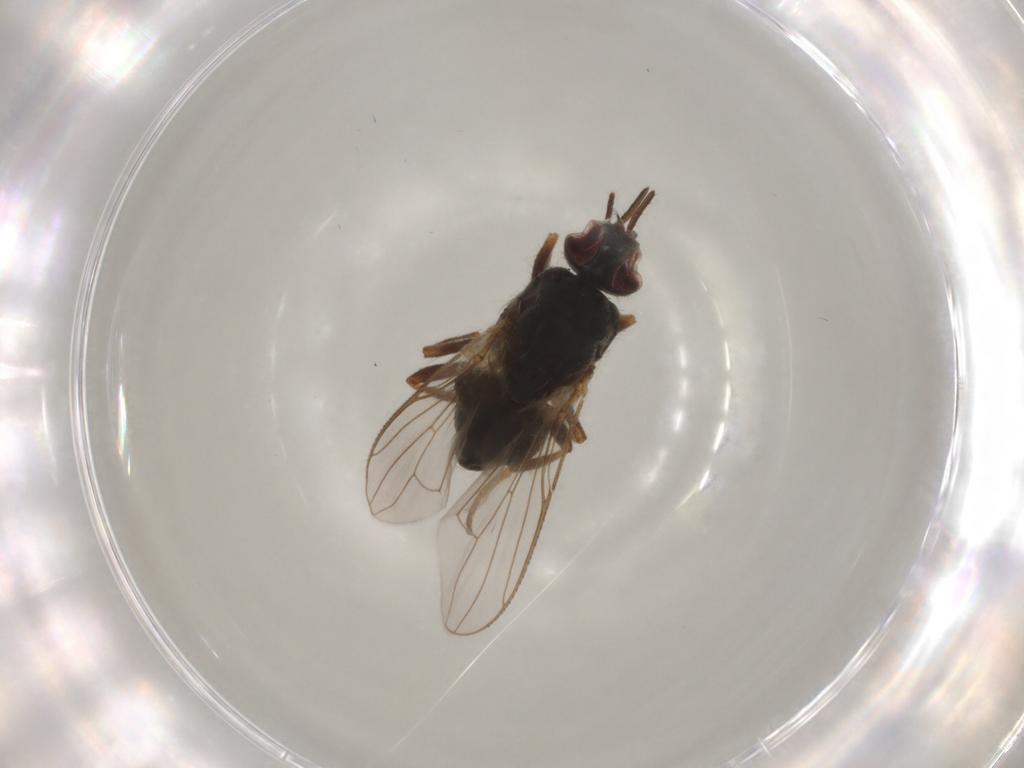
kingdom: Animalia
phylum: Arthropoda
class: Insecta
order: Diptera
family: Muscidae
